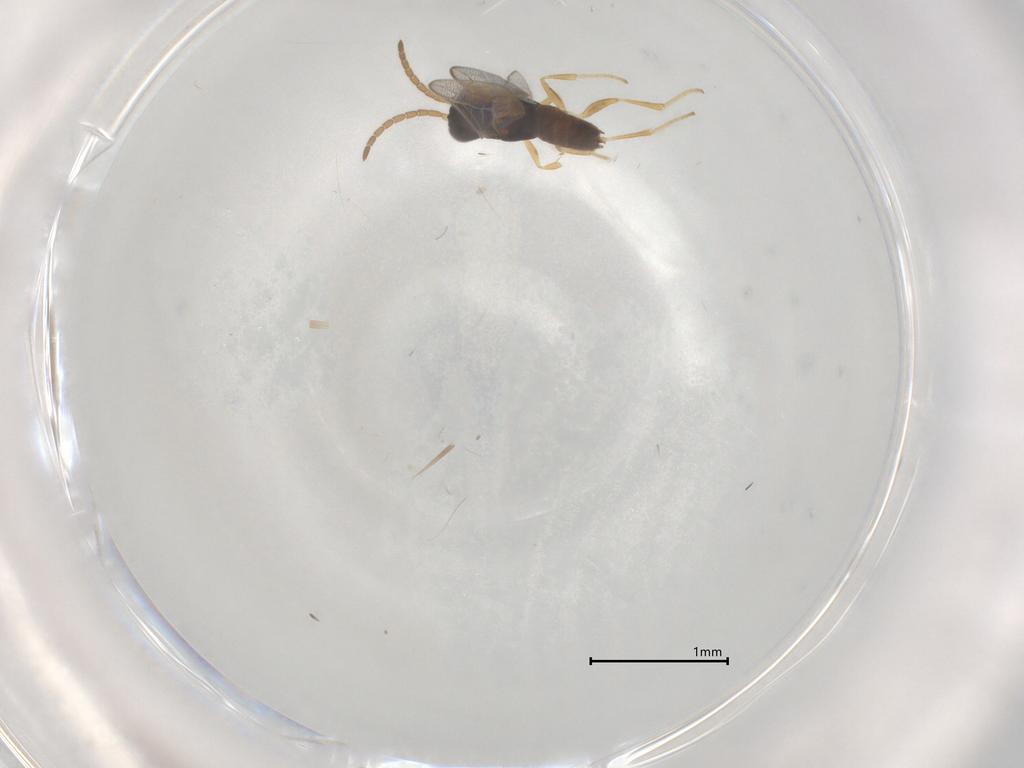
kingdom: Animalia
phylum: Arthropoda
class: Insecta
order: Hymenoptera
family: Dryinidae
